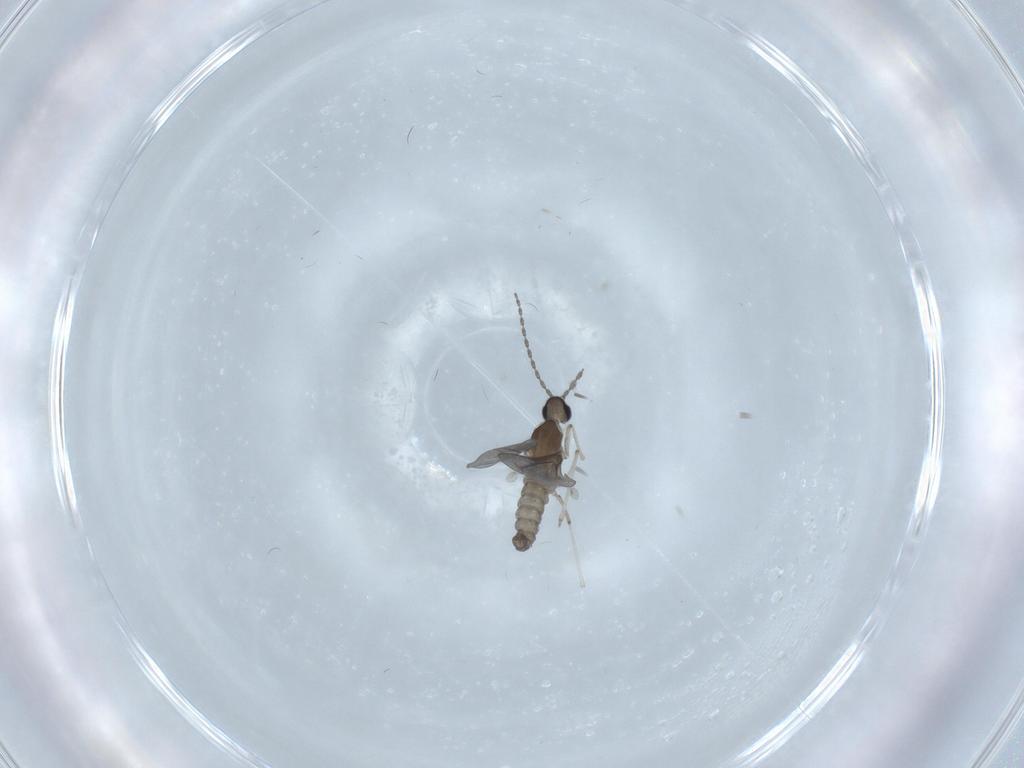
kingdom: Animalia
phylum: Arthropoda
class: Insecta
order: Diptera
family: Cecidomyiidae
